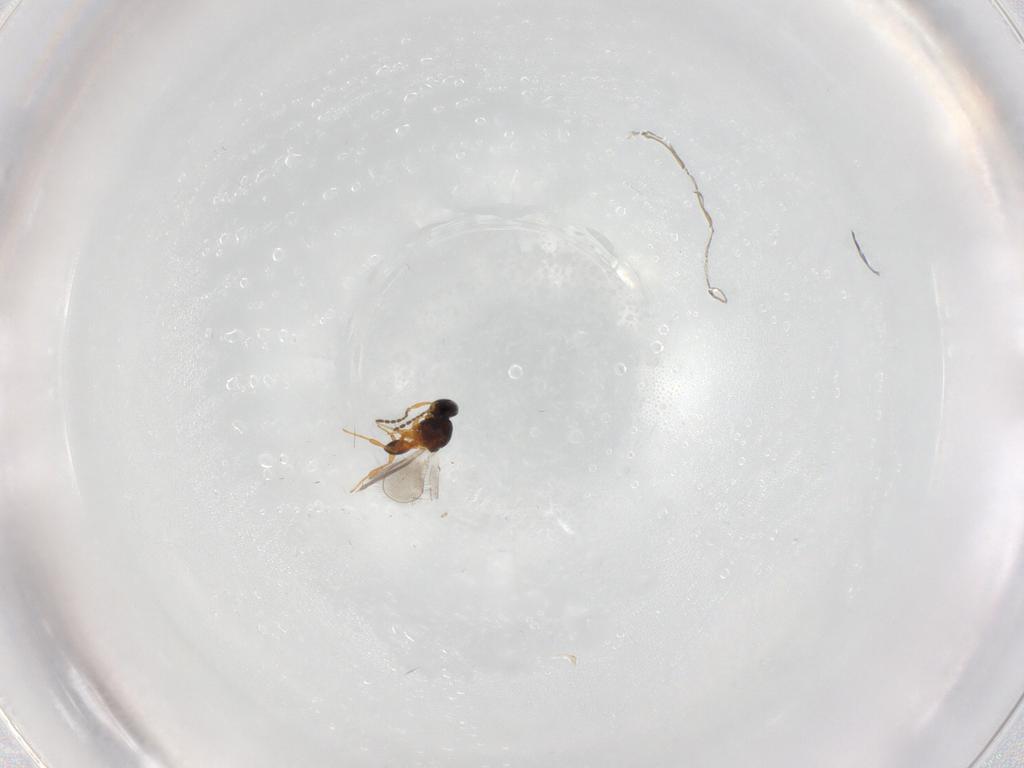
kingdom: Animalia
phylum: Arthropoda
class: Insecta
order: Hymenoptera
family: Platygastridae
